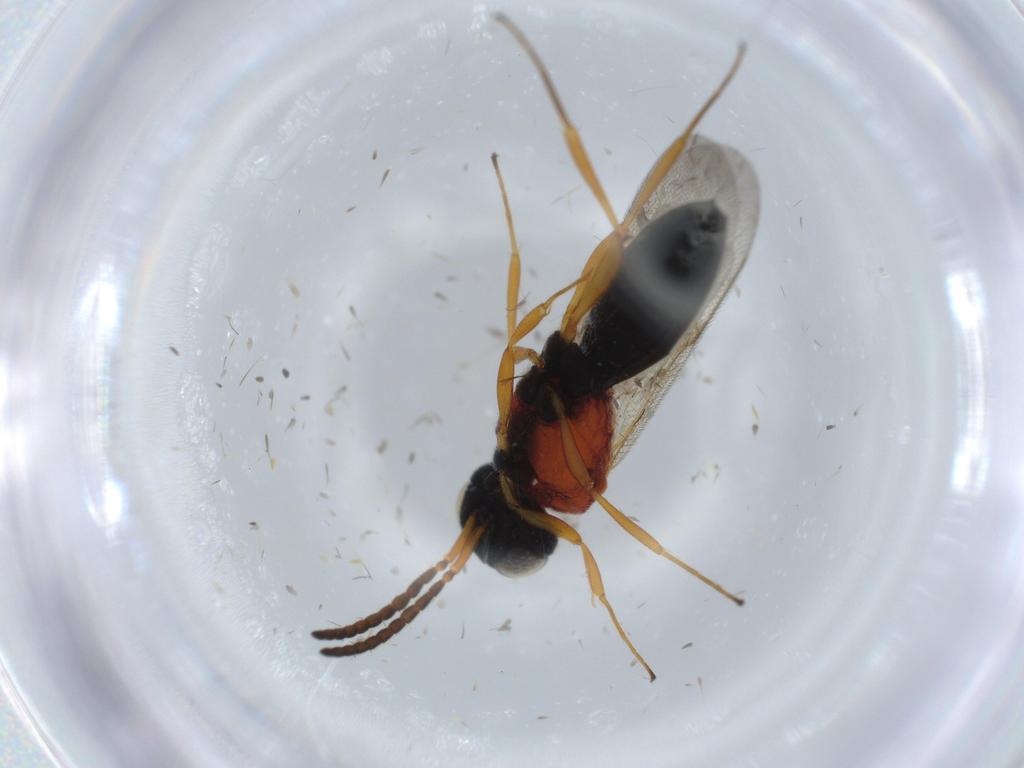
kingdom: Animalia
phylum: Arthropoda
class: Insecta
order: Hymenoptera
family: Scelionidae
